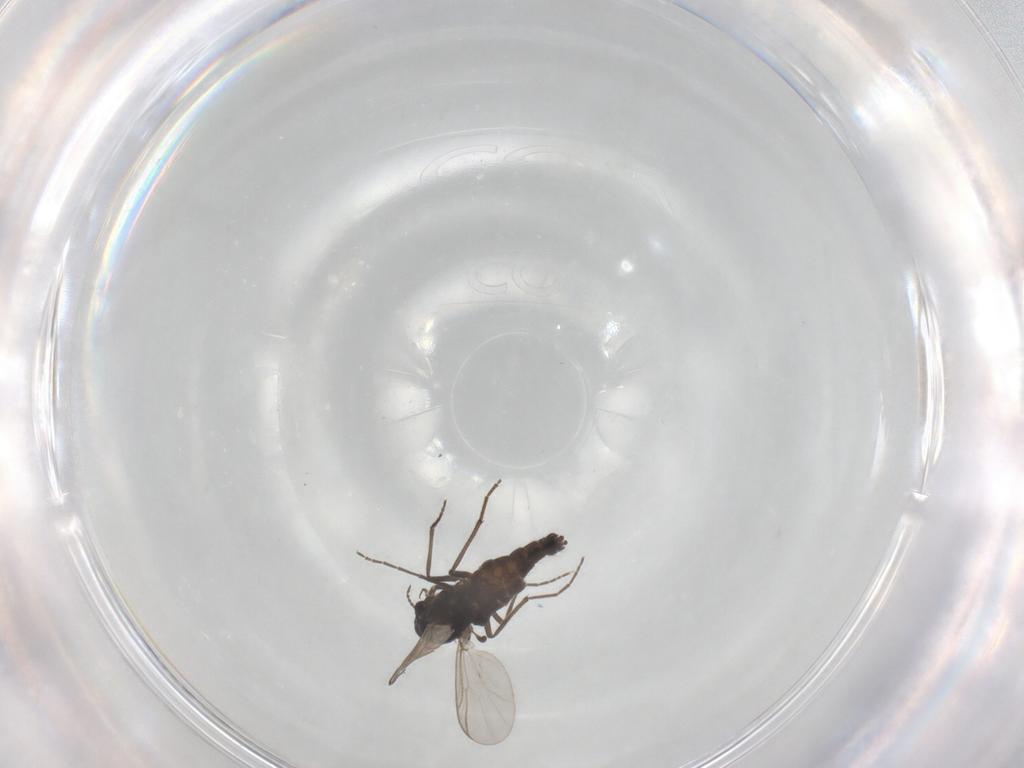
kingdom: Animalia
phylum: Arthropoda
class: Insecta
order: Diptera
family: Chironomidae
